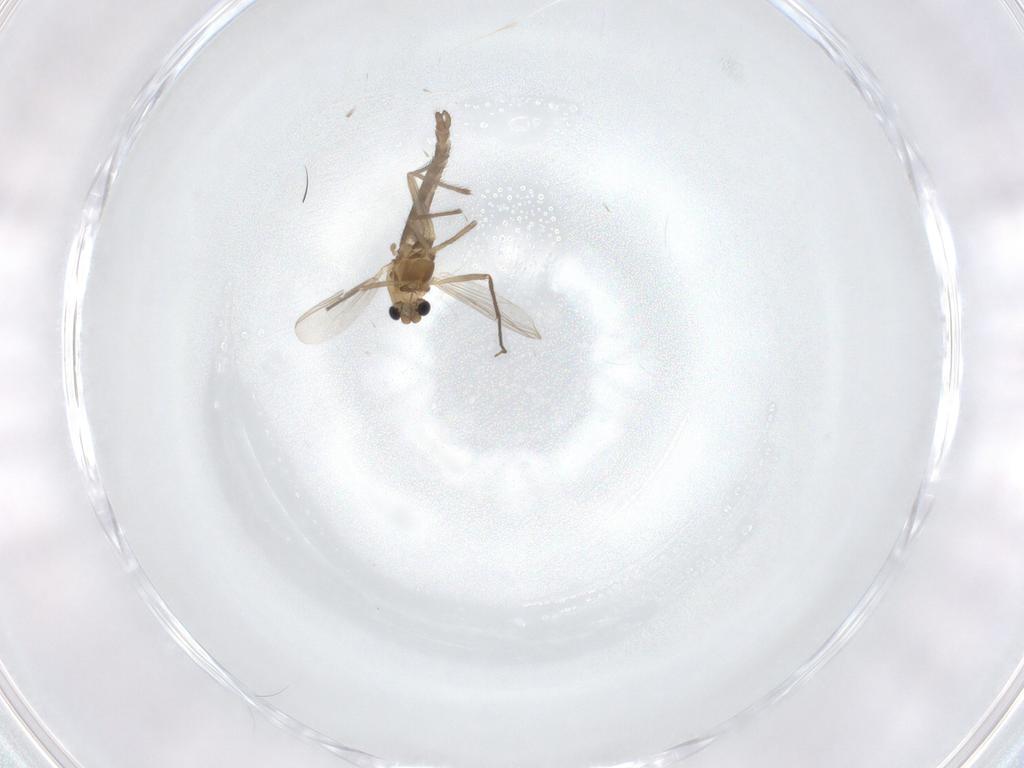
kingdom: Animalia
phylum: Arthropoda
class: Insecta
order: Diptera
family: Chironomidae
